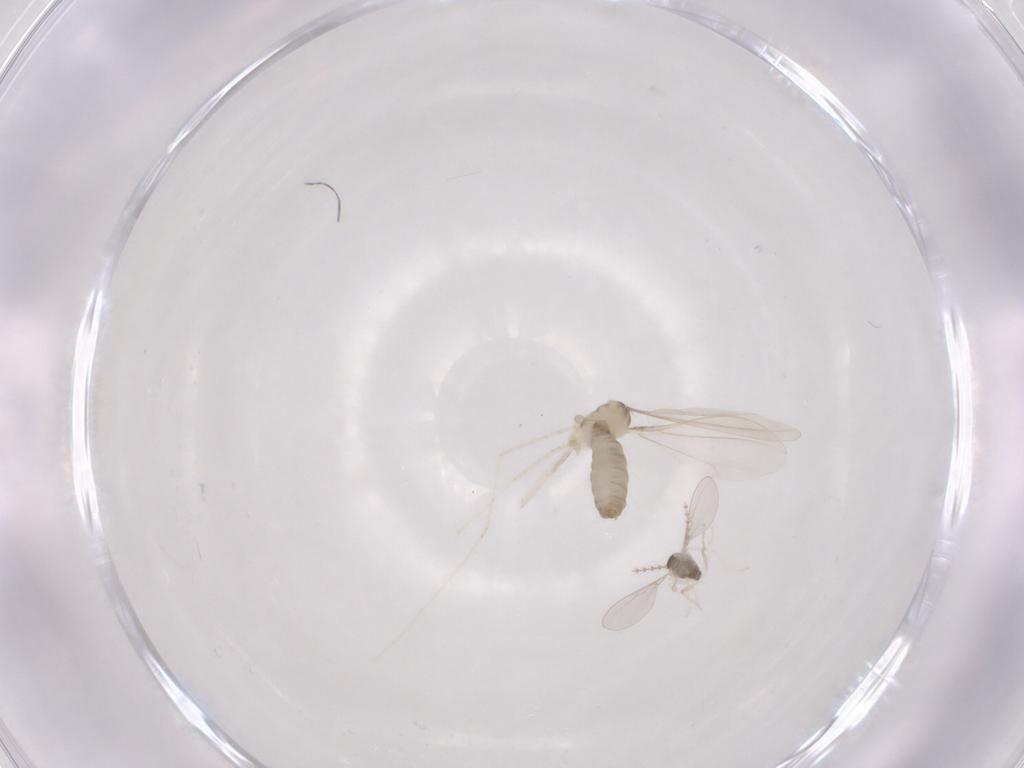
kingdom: Animalia
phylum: Arthropoda
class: Insecta
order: Diptera
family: Cecidomyiidae
